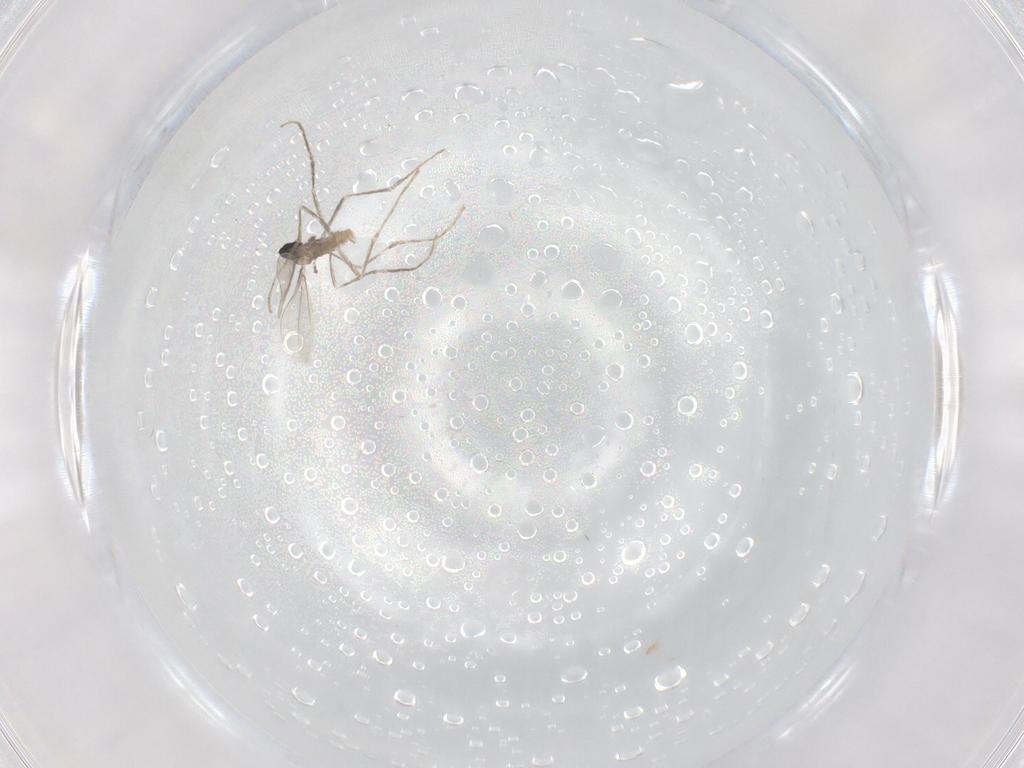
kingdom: Animalia
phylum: Arthropoda
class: Insecta
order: Diptera
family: Cecidomyiidae
